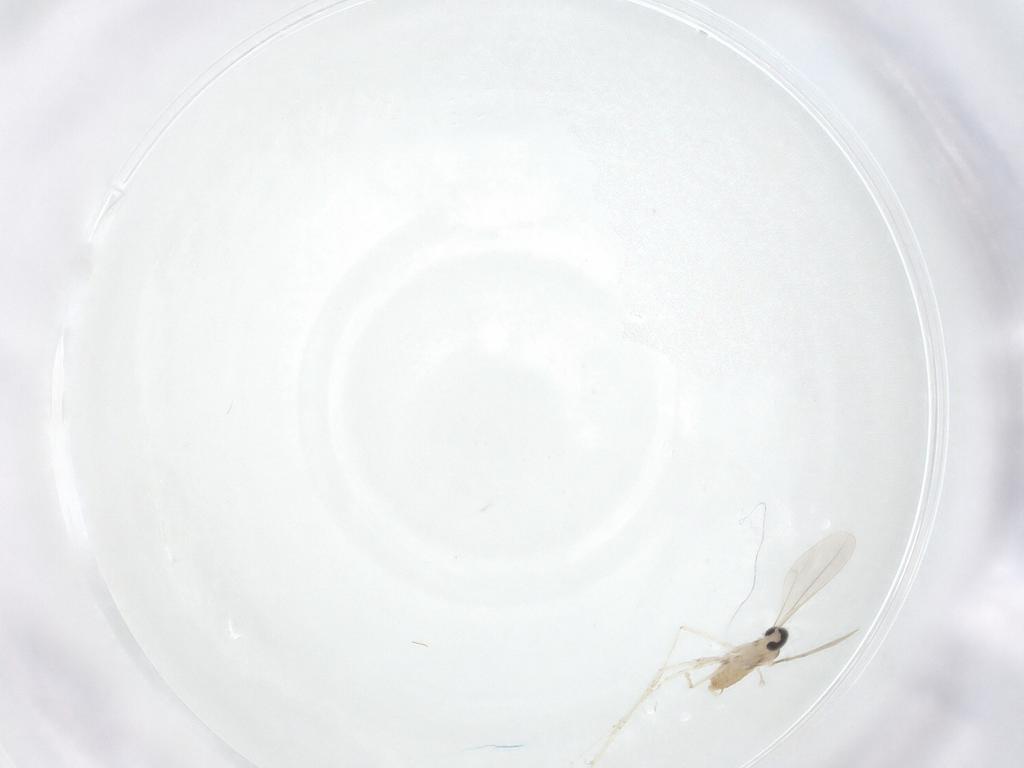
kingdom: Animalia
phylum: Arthropoda
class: Insecta
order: Diptera
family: Cecidomyiidae
